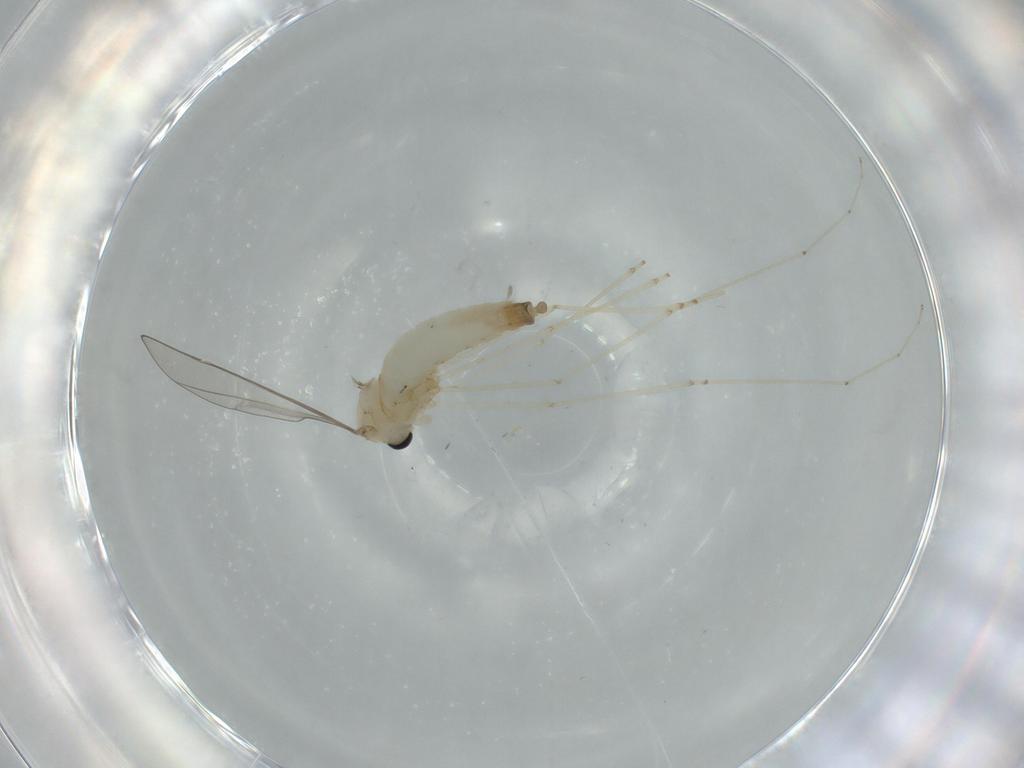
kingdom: Animalia
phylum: Arthropoda
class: Insecta
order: Diptera
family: Cecidomyiidae
